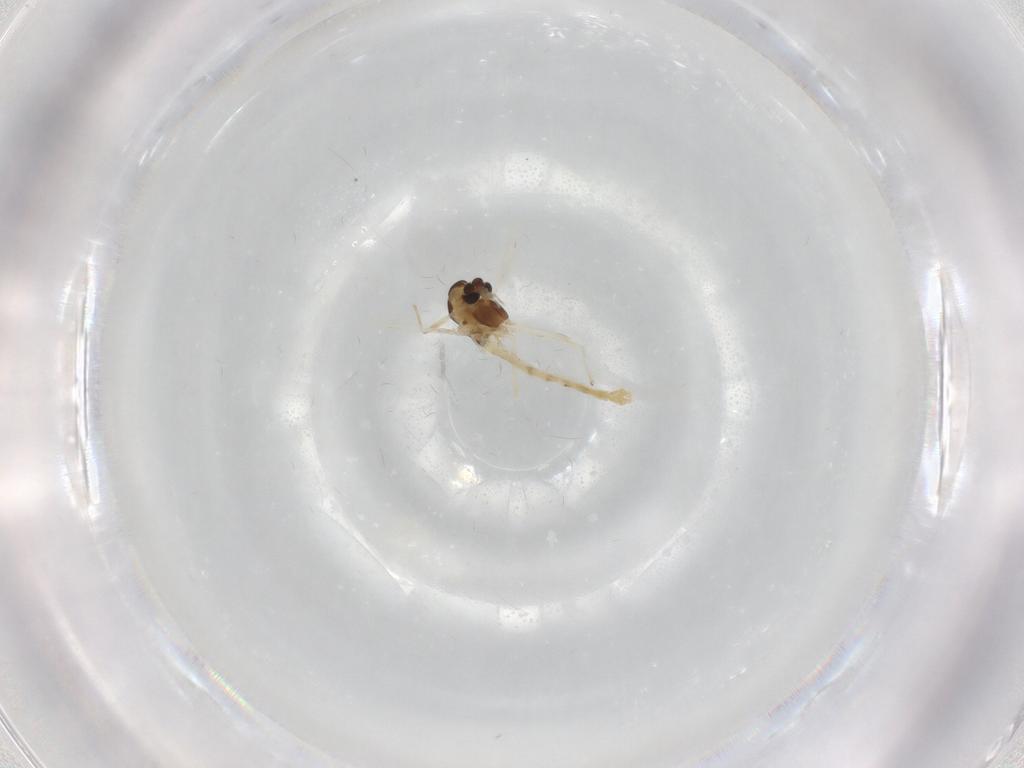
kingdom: Animalia
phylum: Arthropoda
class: Insecta
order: Diptera
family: Chironomidae
